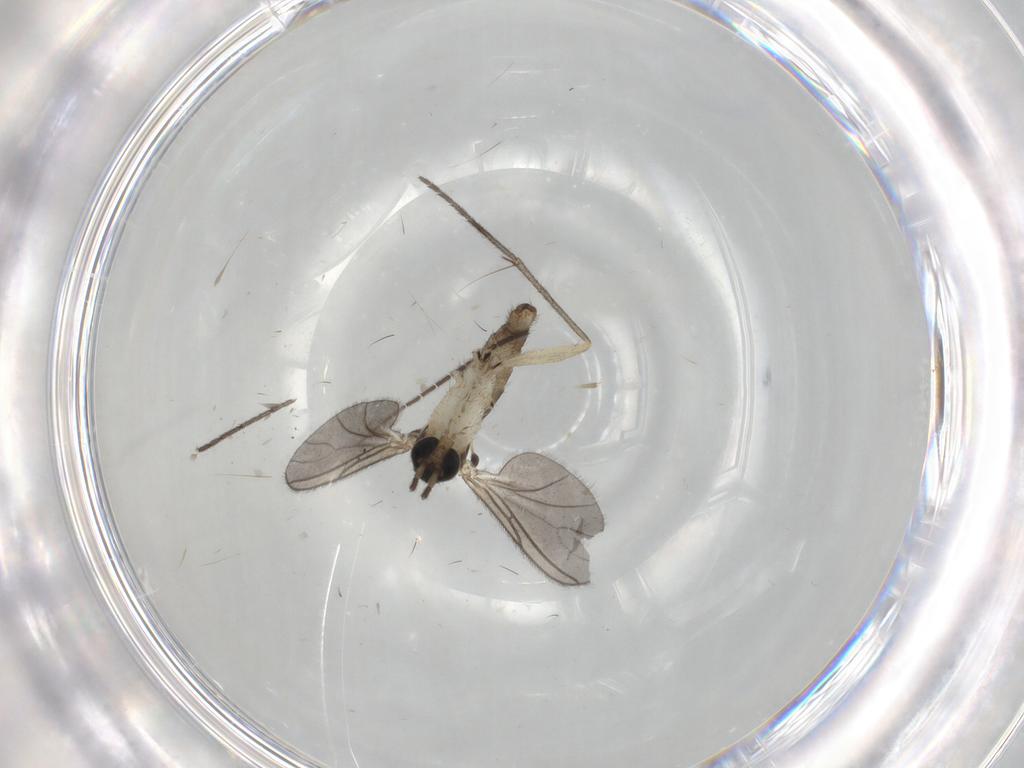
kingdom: Animalia
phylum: Arthropoda
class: Insecta
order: Diptera
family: Sciaridae
